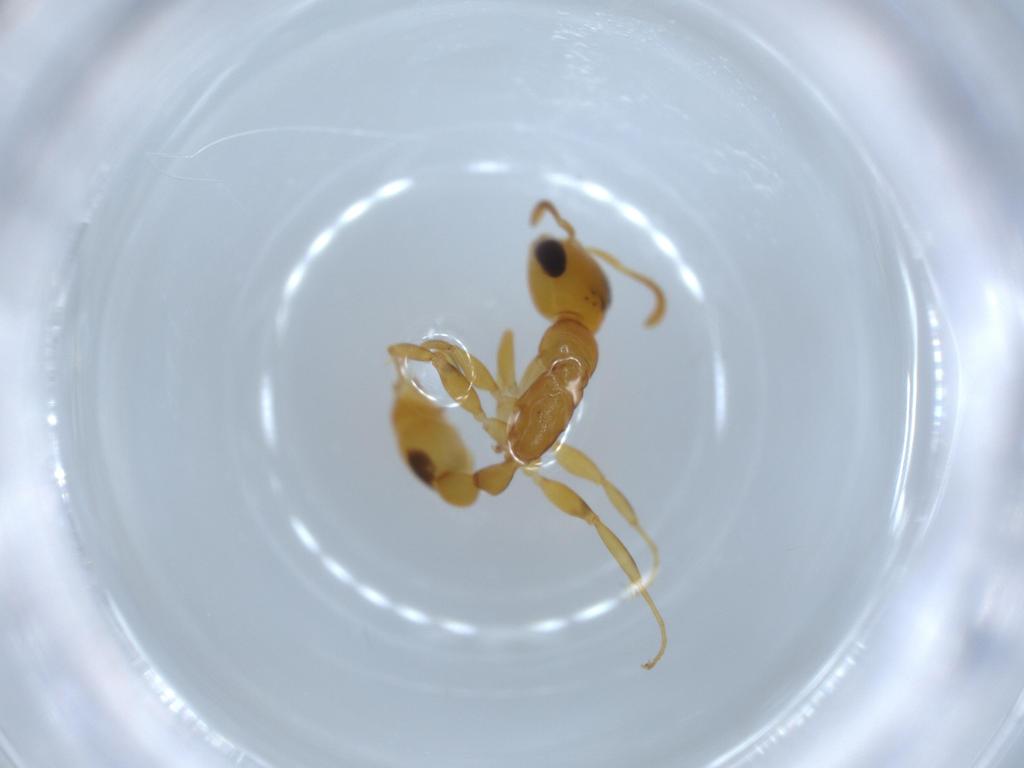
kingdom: Animalia
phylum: Arthropoda
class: Insecta
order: Hymenoptera
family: Formicidae
